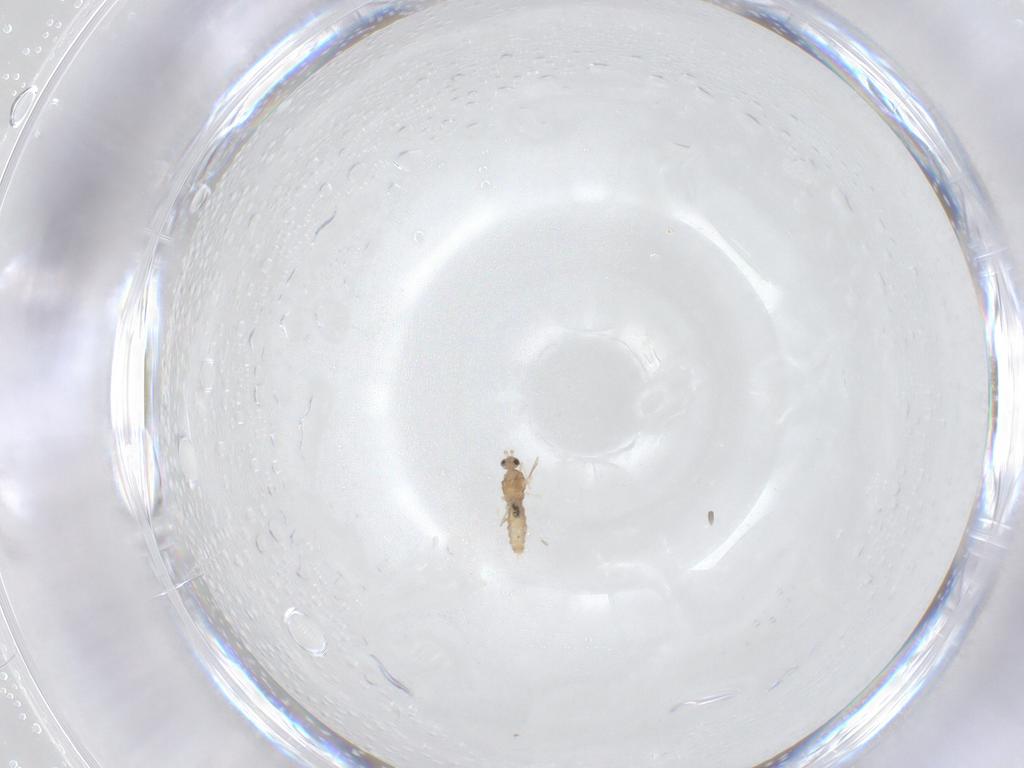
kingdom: Animalia
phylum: Arthropoda
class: Insecta
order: Diptera
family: Cecidomyiidae
